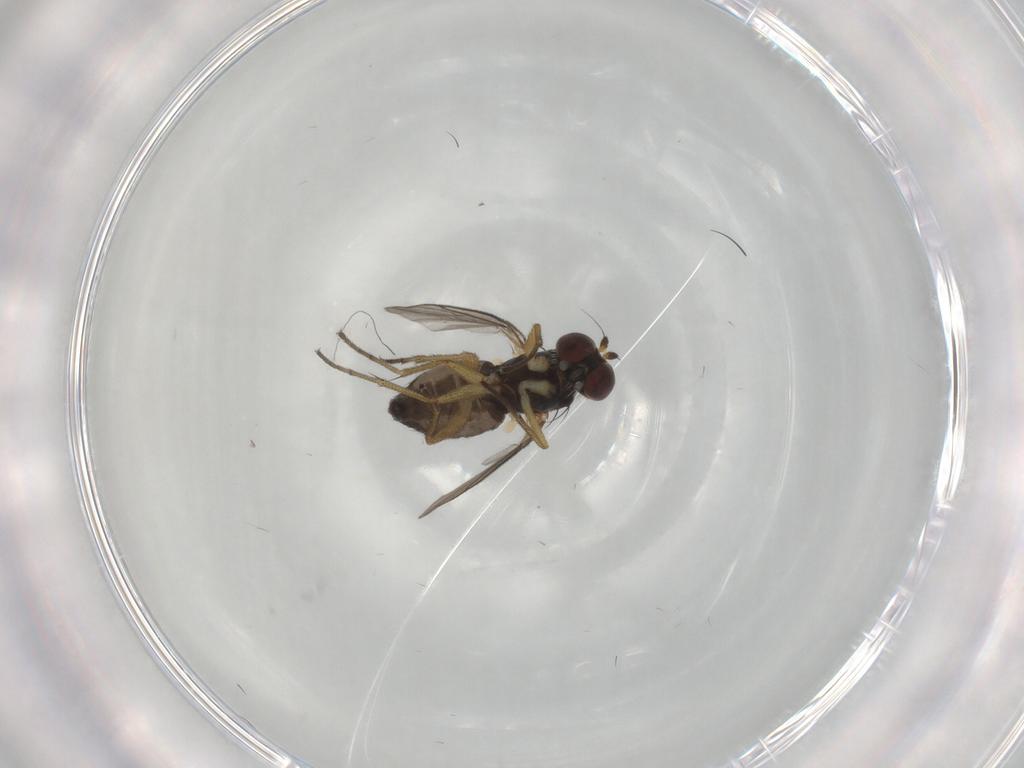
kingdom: Animalia
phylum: Arthropoda
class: Insecta
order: Diptera
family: Dolichopodidae
